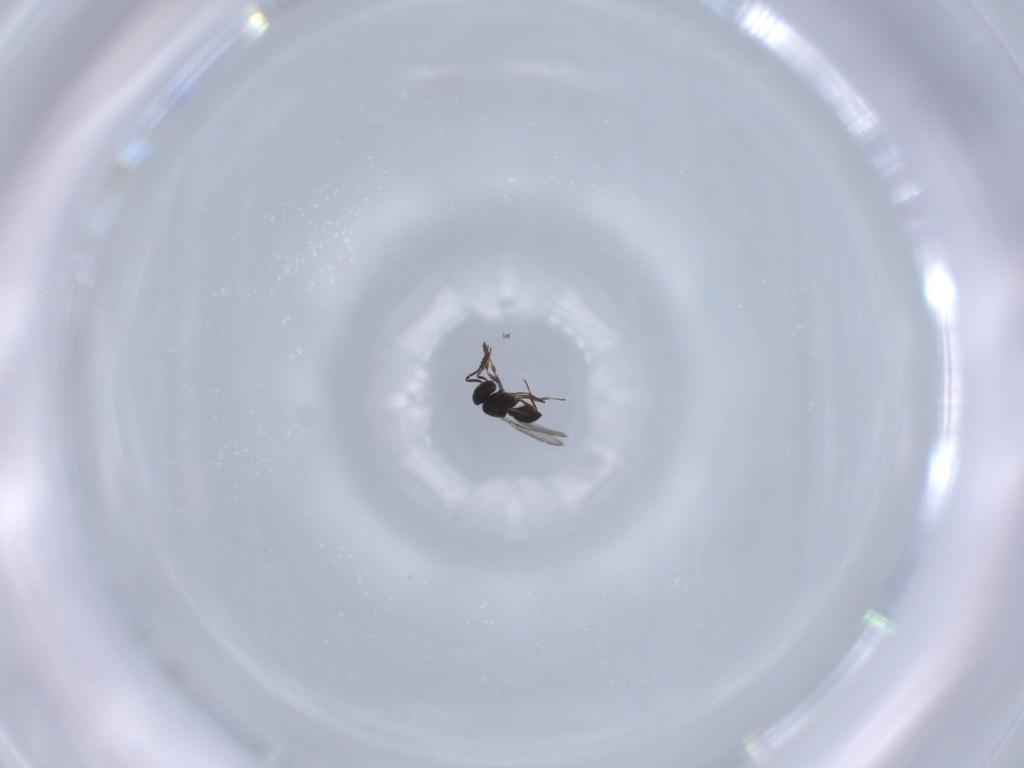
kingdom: Animalia
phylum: Arthropoda
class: Insecta
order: Hymenoptera
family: Scelionidae
